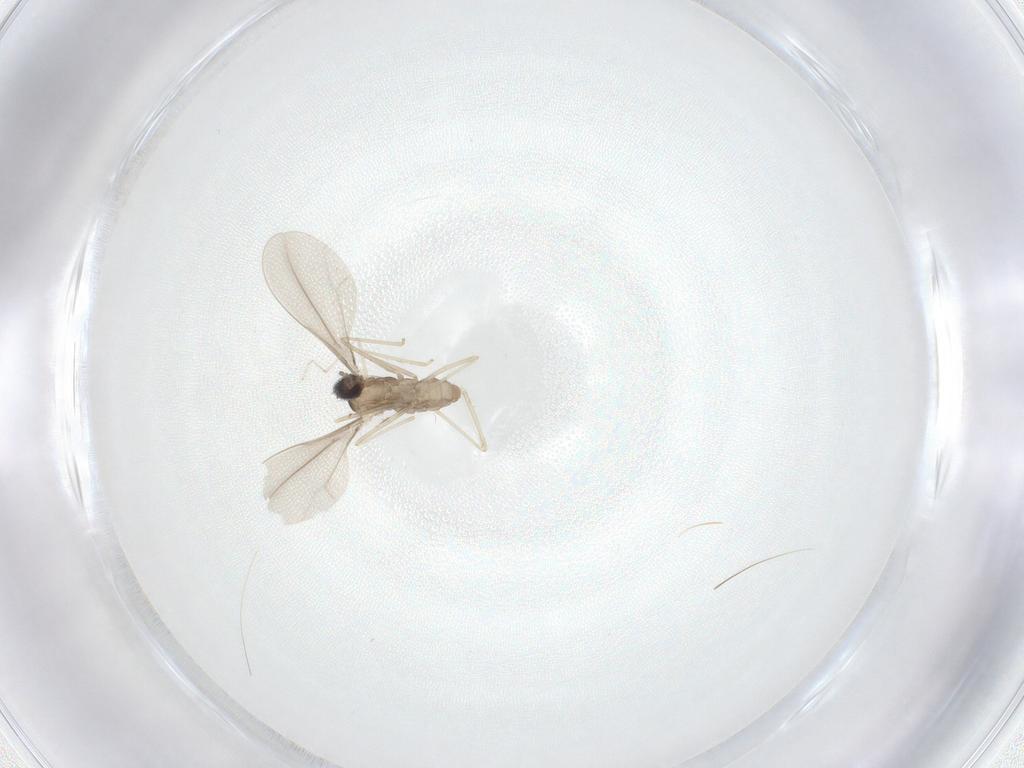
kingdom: Animalia
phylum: Arthropoda
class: Insecta
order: Diptera
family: Cecidomyiidae
